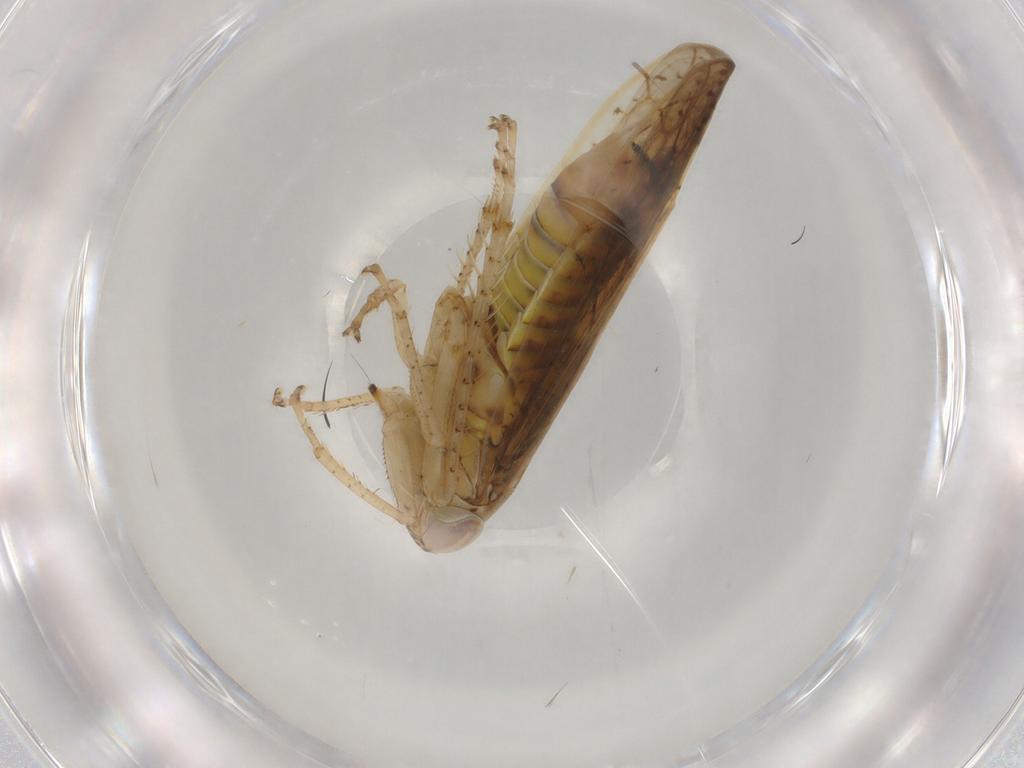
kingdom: Animalia
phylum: Arthropoda
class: Insecta
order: Hemiptera
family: Cicadellidae
